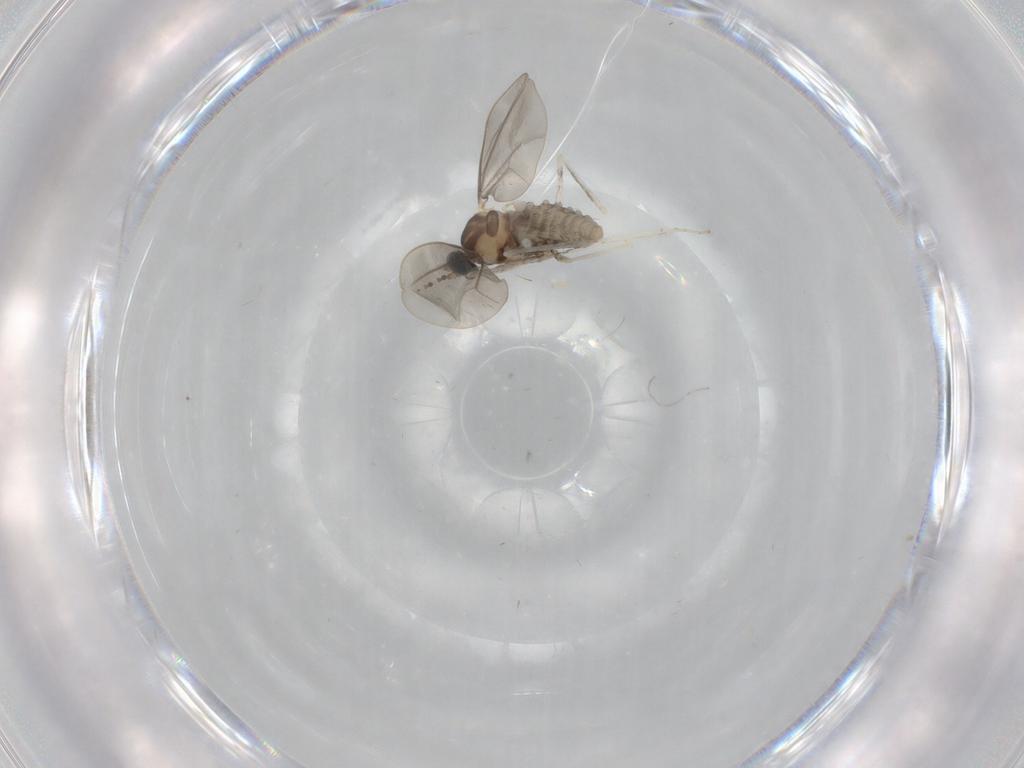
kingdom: Animalia
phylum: Arthropoda
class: Insecta
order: Diptera
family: Cecidomyiidae
